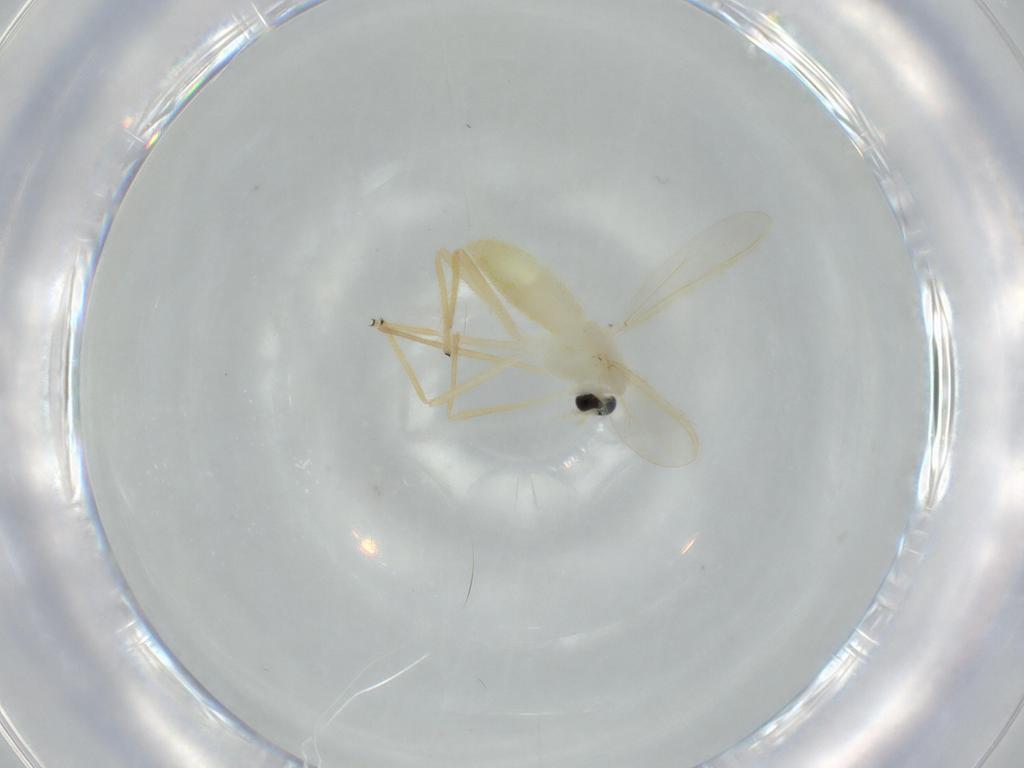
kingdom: Animalia
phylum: Arthropoda
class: Insecta
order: Diptera
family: Chironomidae
